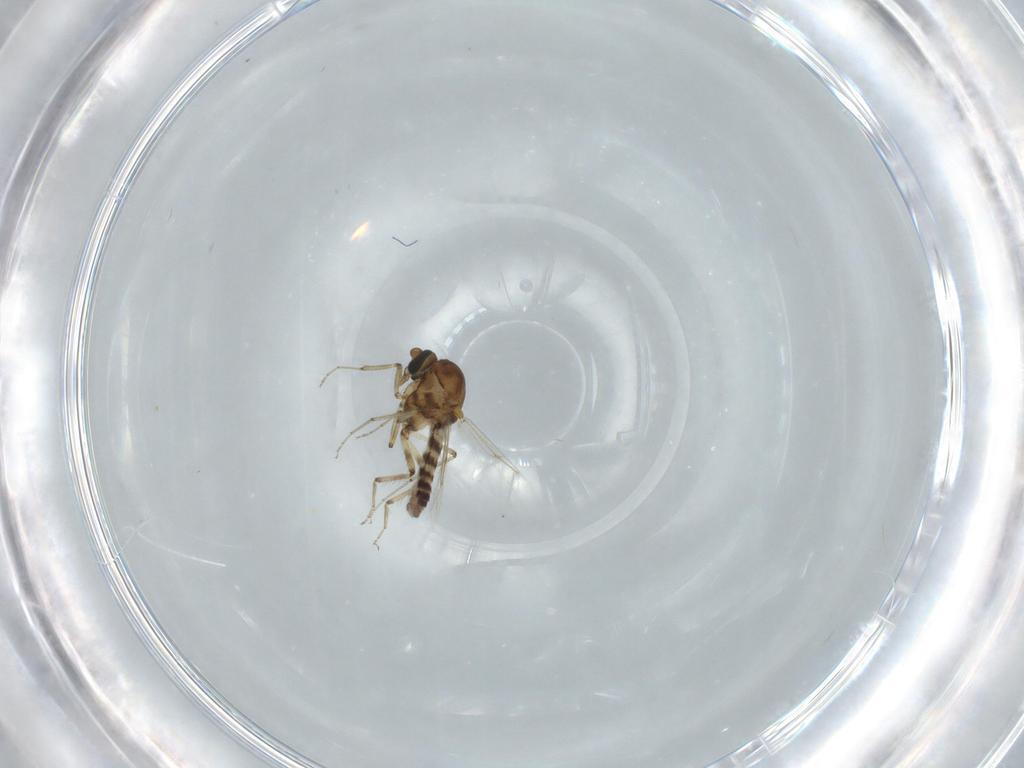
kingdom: Animalia
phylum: Arthropoda
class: Insecta
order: Diptera
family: Ceratopogonidae
